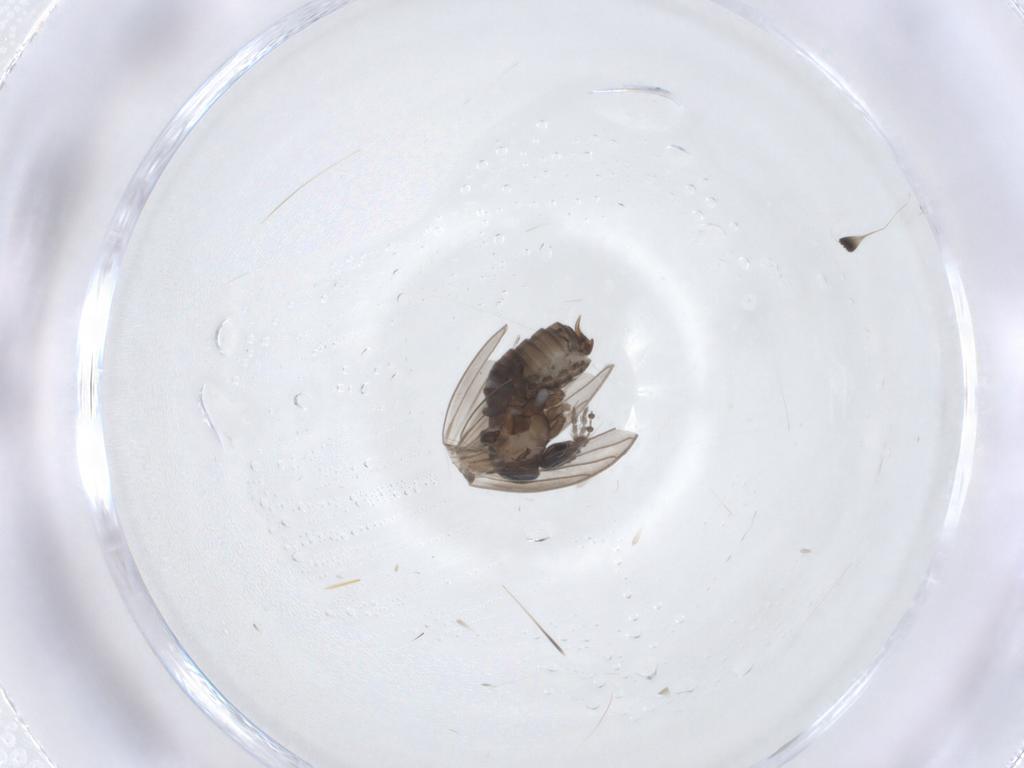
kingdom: Animalia
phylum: Arthropoda
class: Insecta
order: Diptera
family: Psychodidae
